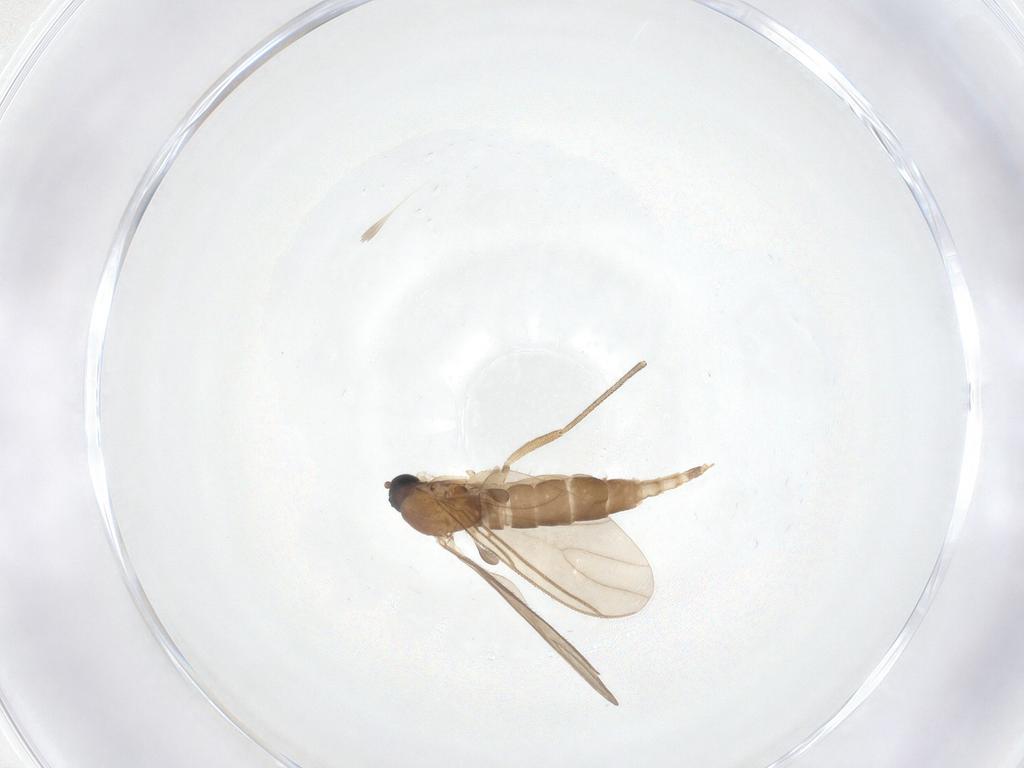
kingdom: Animalia
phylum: Arthropoda
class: Insecta
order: Diptera
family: Sciaridae
